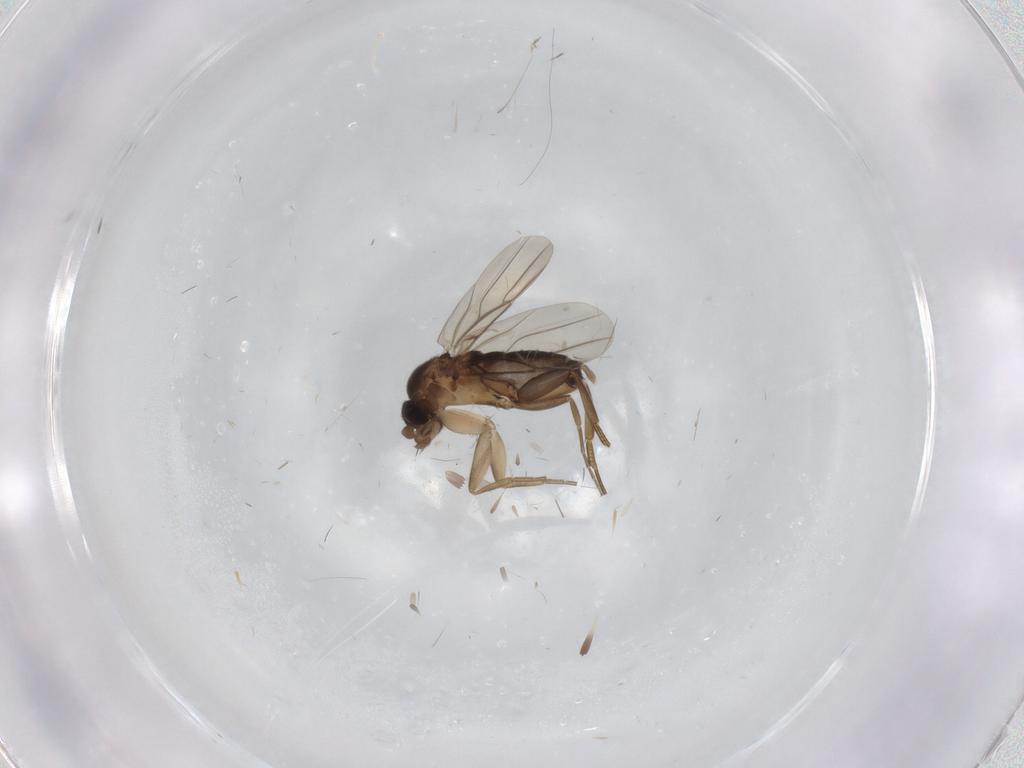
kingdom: Animalia
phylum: Arthropoda
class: Insecta
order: Diptera
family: Phoridae
